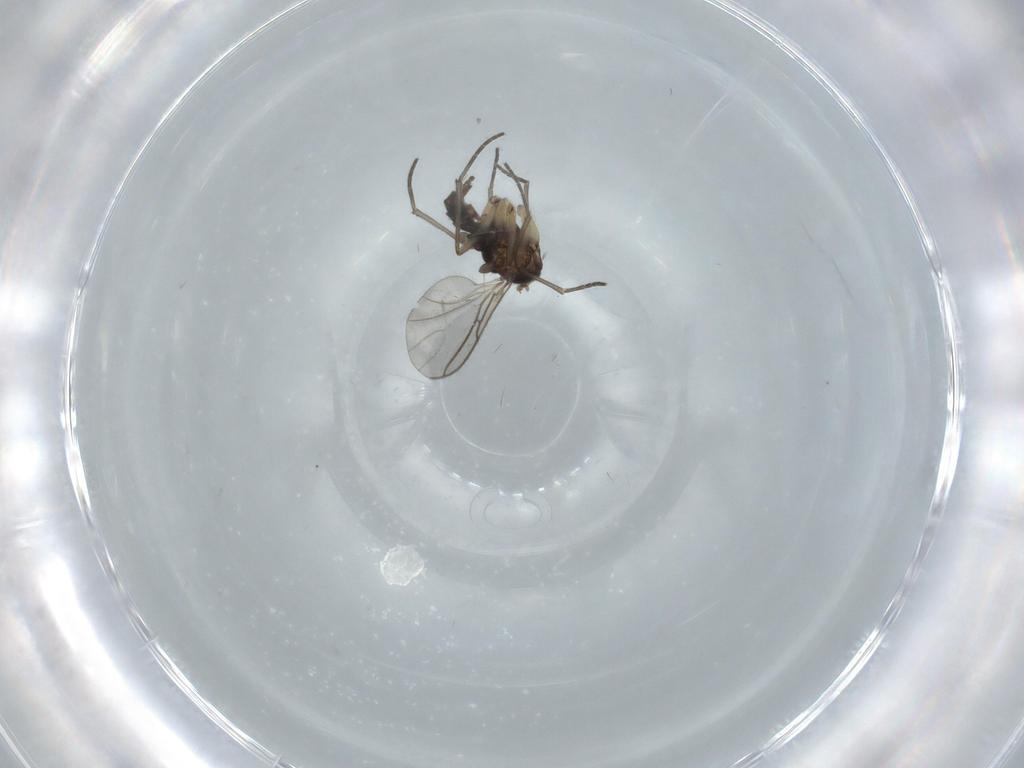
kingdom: Animalia
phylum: Arthropoda
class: Insecta
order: Diptera
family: Sciaridae
